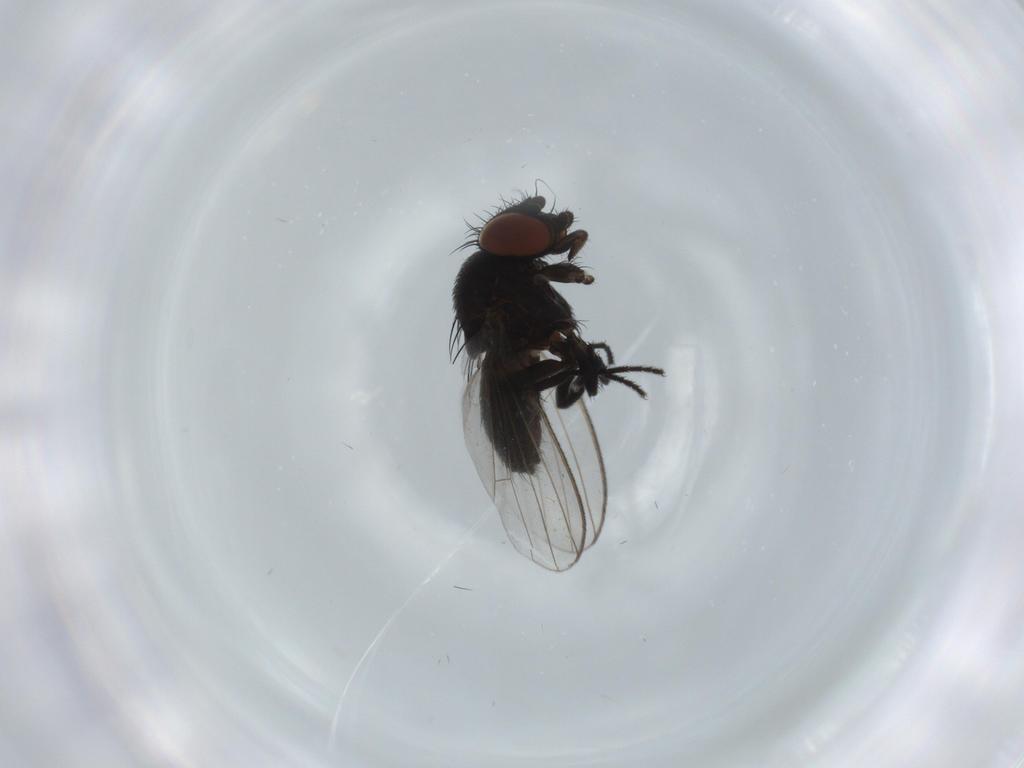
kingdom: Animalia
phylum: Arthropoda
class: Insecta
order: Diptera
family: Milichiidae
